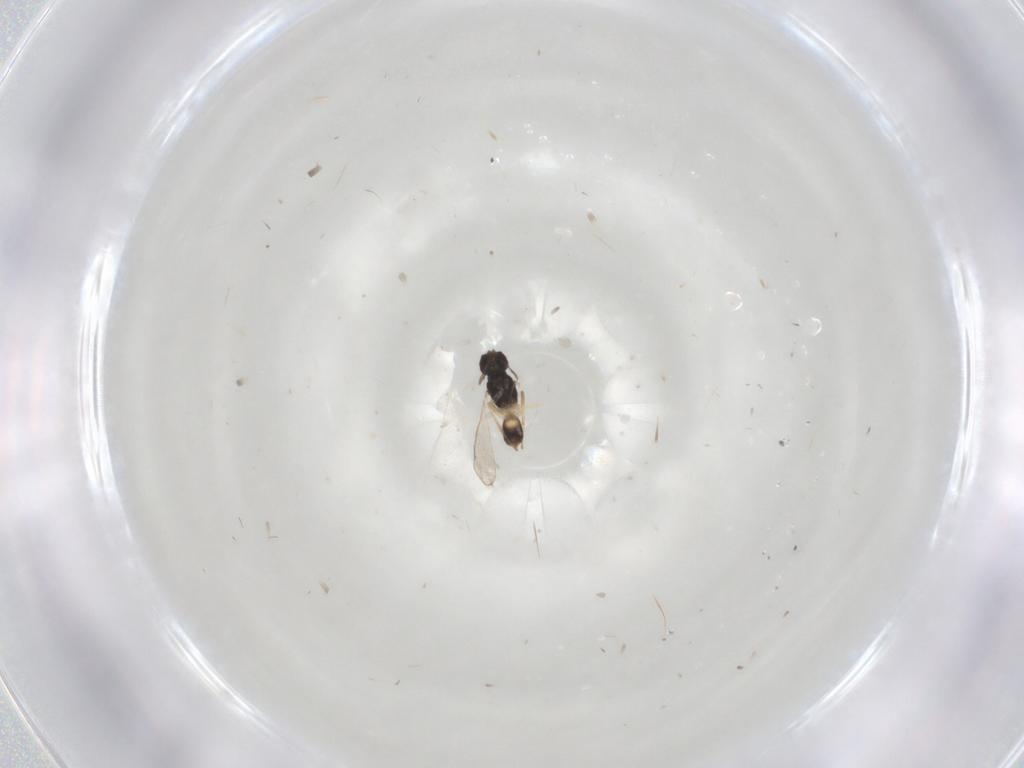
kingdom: Animalia
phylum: Arthropoda
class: Insecta
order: Hymenoptera
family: Eulophidae
